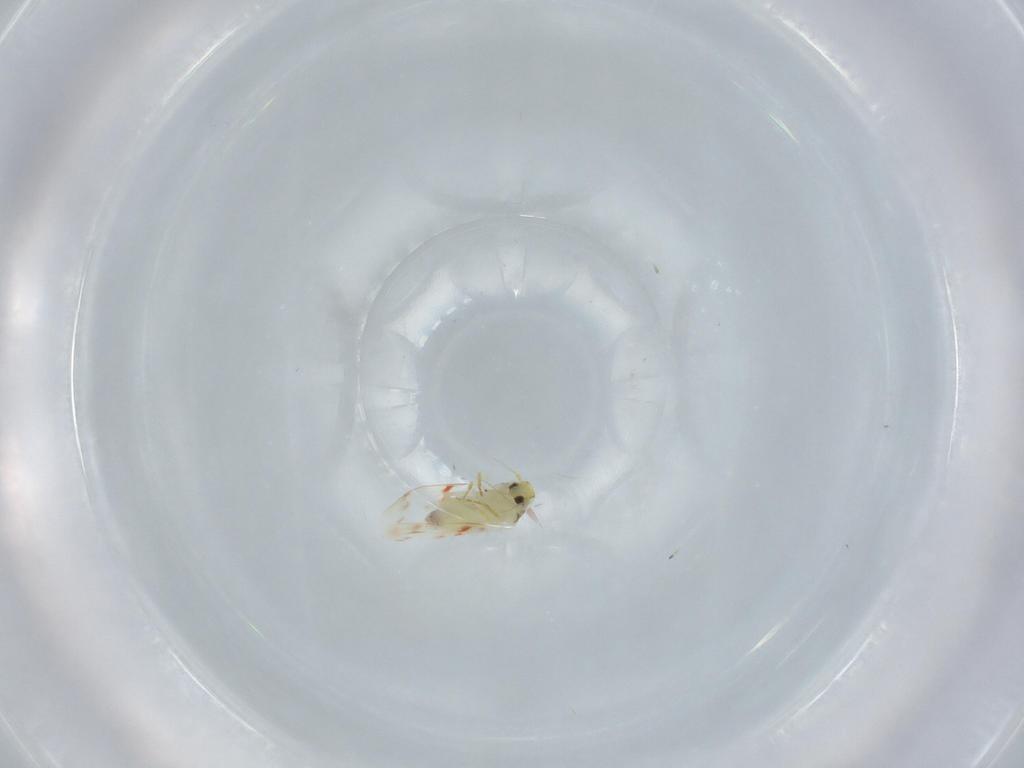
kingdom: Animalia
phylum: Arthropoda
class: Insecta
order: Hemiptera
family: Aleyrodidae
